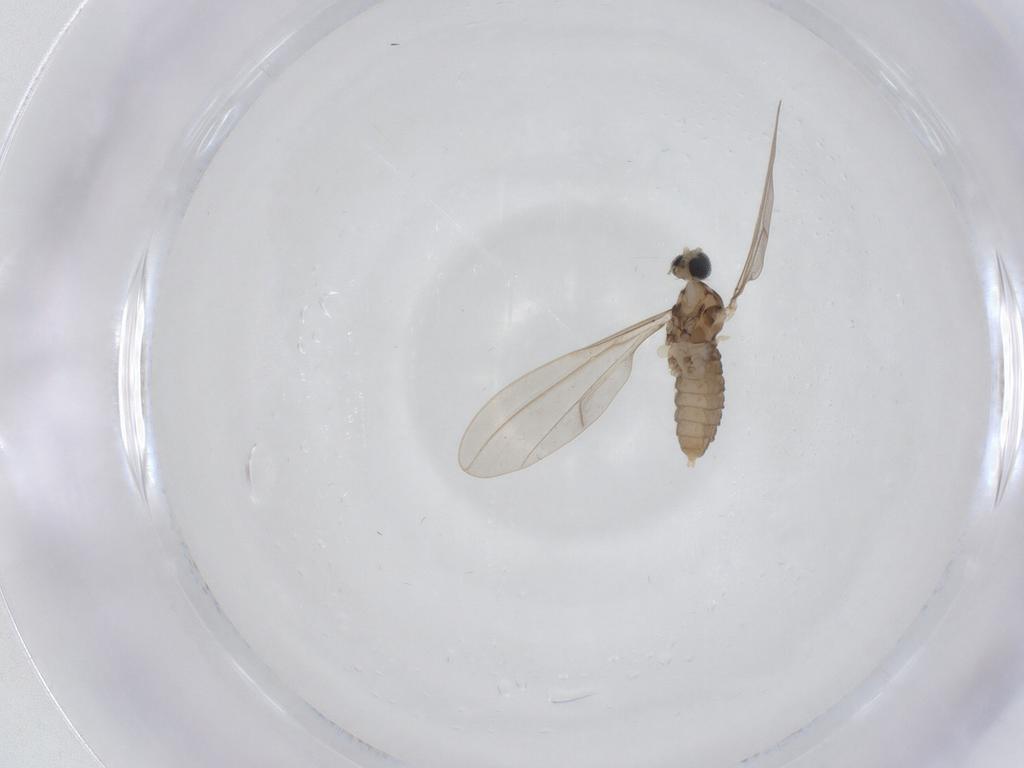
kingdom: Animalia
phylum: Arthropoda
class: Insecta
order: Diptera
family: Cecidomyiidae
